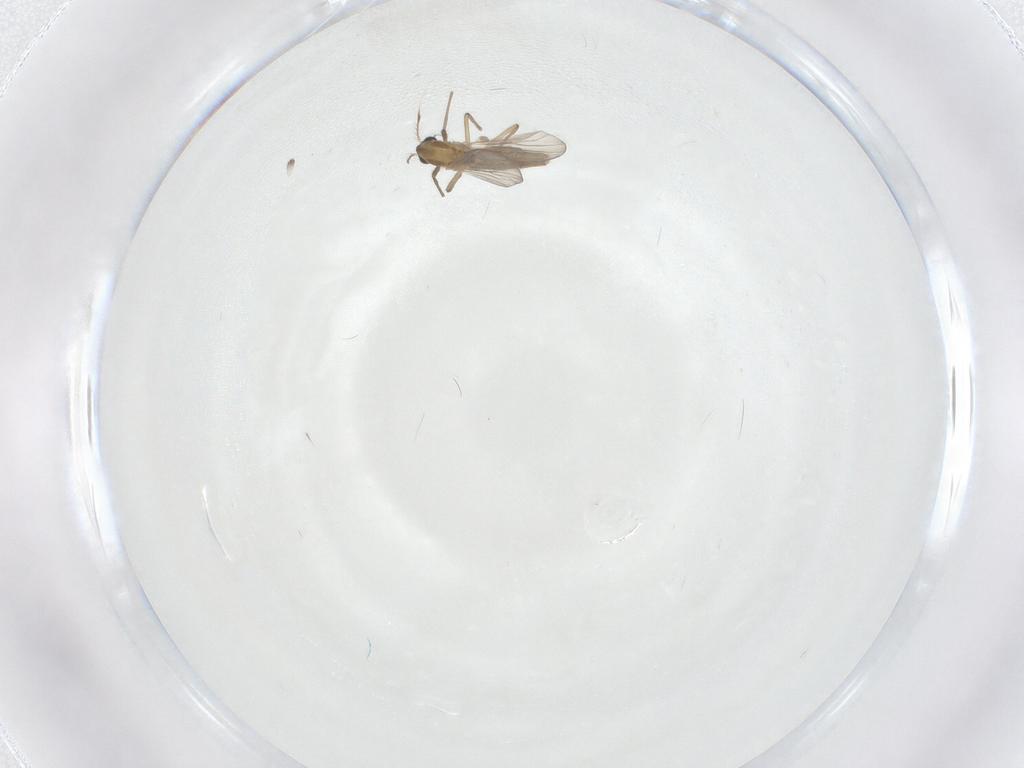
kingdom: Animalia
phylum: Arthropoda
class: Insecta
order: Diptera
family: Chironomidae
